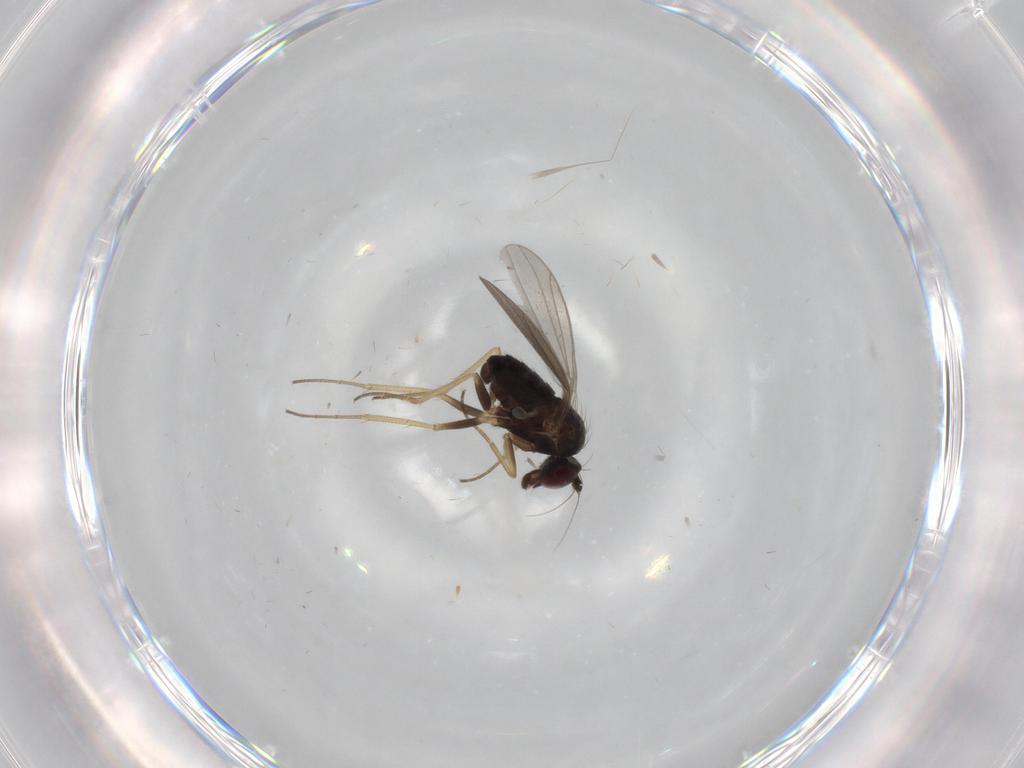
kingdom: Animalia
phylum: Arthropoda
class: Insecta
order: Diptera
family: Dolichopodidae
